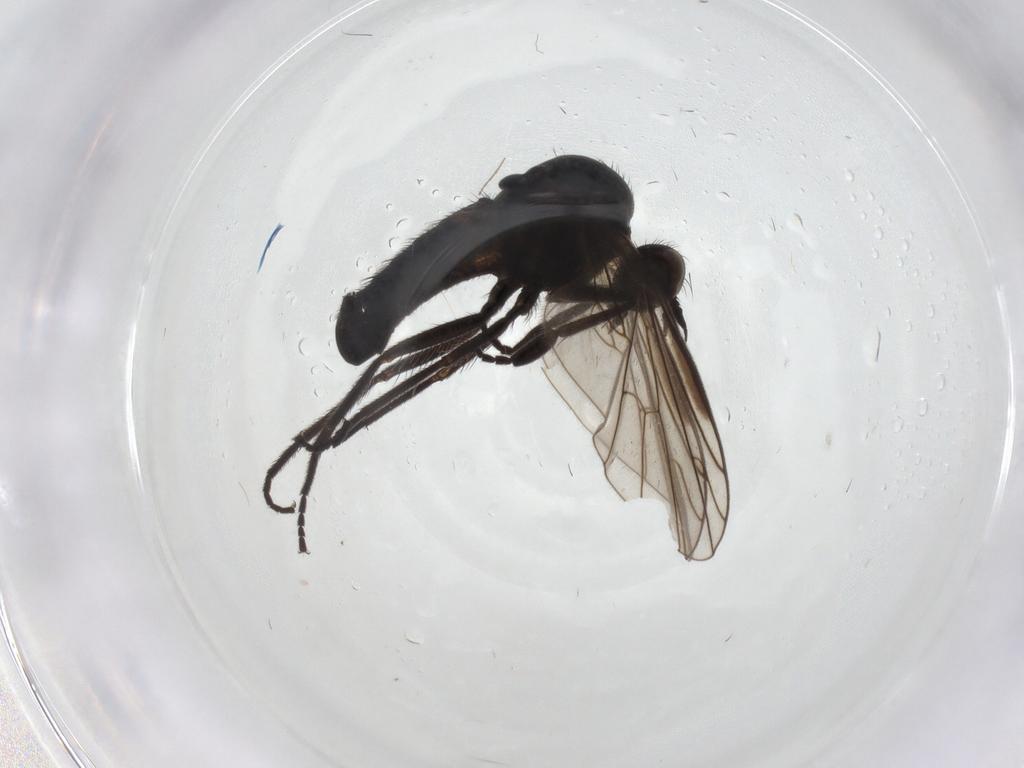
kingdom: Animalia
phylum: Arthropoda
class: Insecta
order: Diptera
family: Empididae
